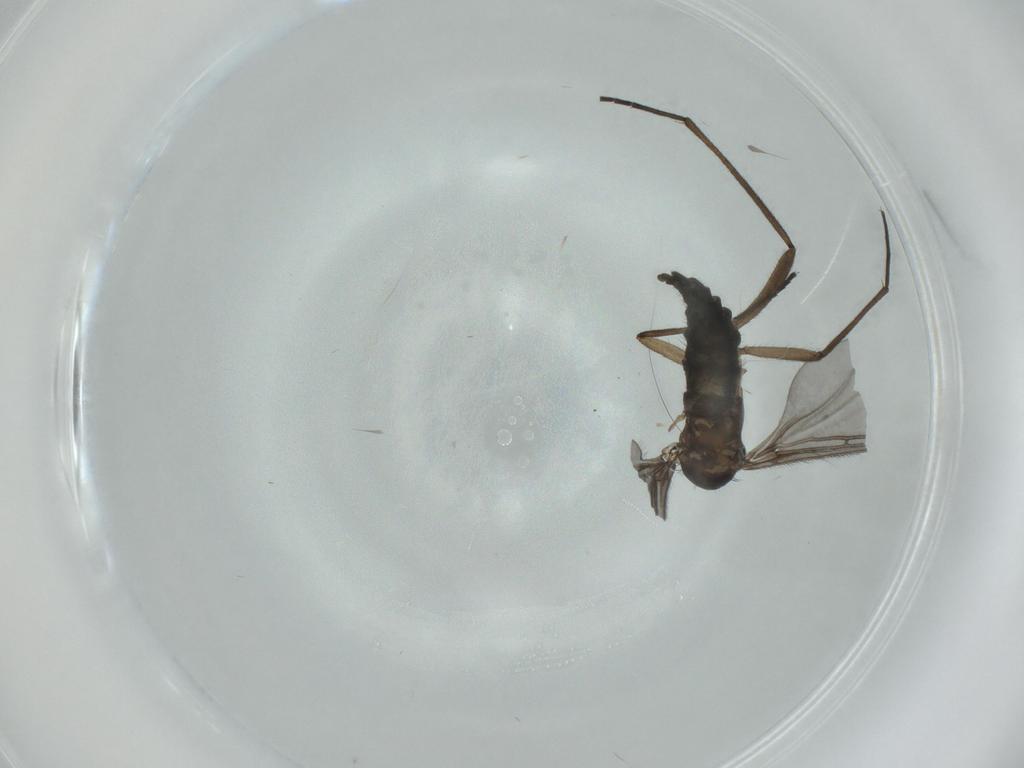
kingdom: Animalia
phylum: Arthropoda
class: Insecta
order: Diptera
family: Sciaridae
